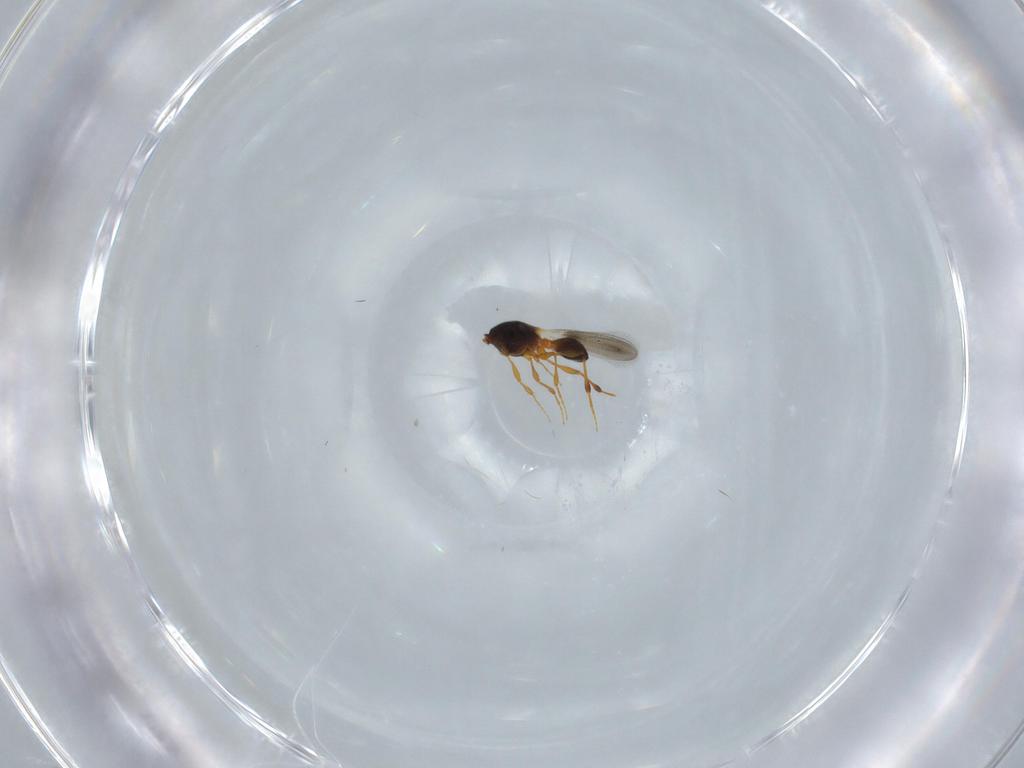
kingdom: Animalia
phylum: Arthropoda
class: Insecta
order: Hymenoptera
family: Platygastridae
